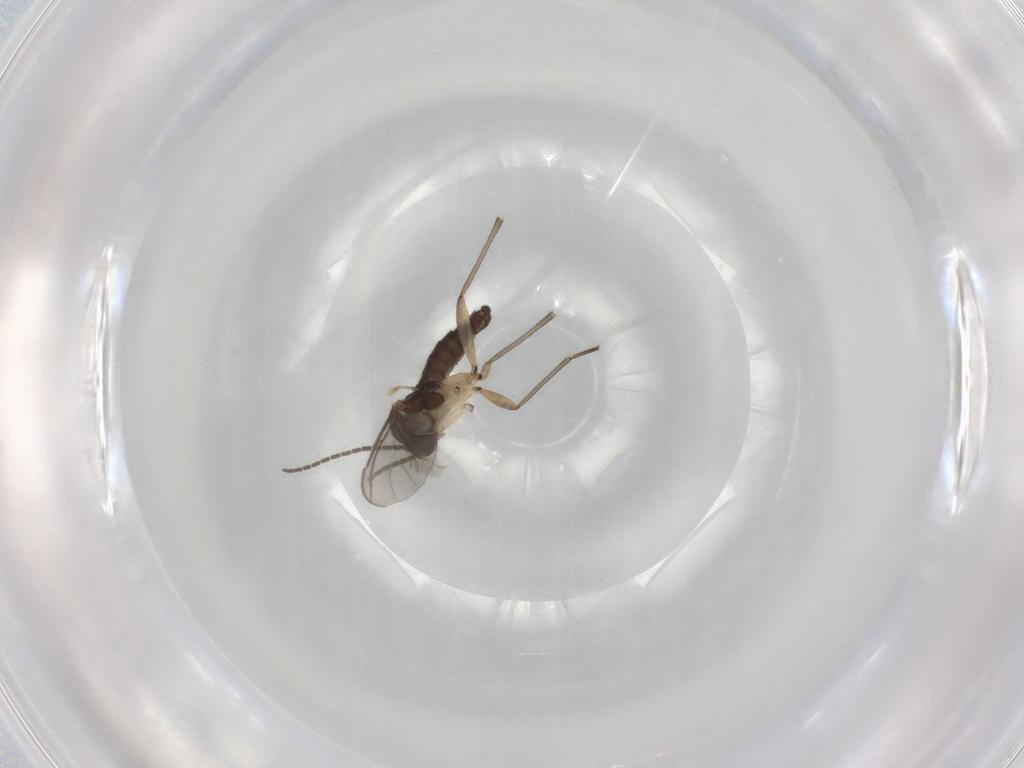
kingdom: Animalia
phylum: Arthropoda
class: Insecta
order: Diptera
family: Sciaridae
